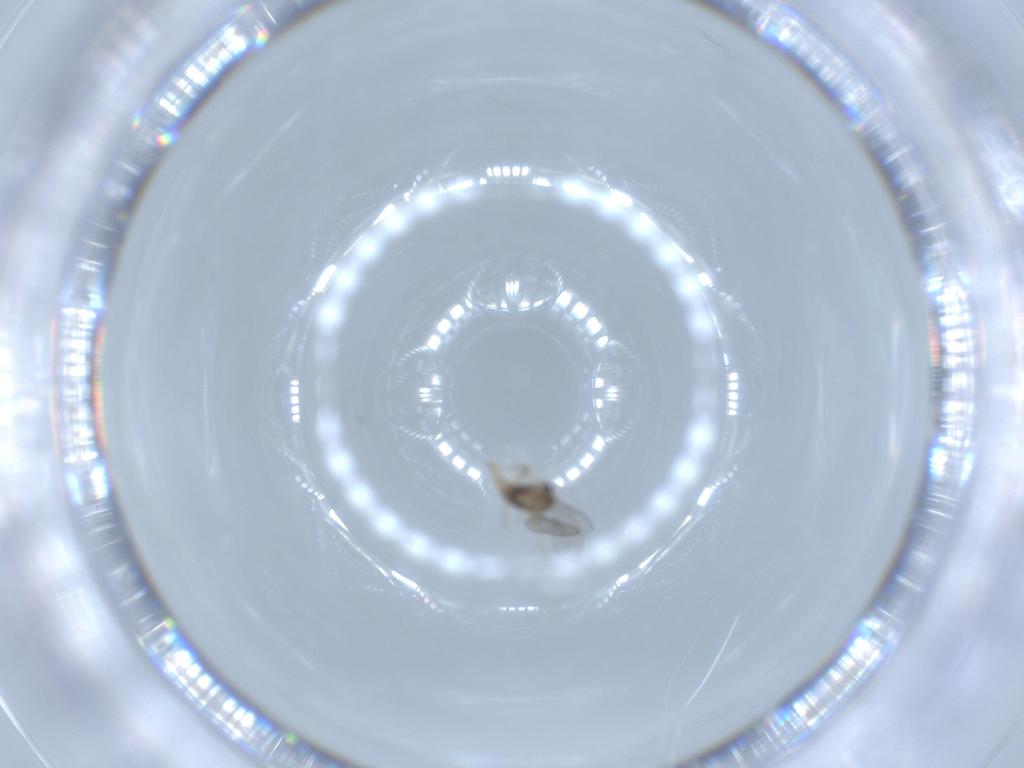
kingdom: Animalia
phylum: Arthropoda
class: Insecta
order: Diptera
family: Cecidomyiidae
